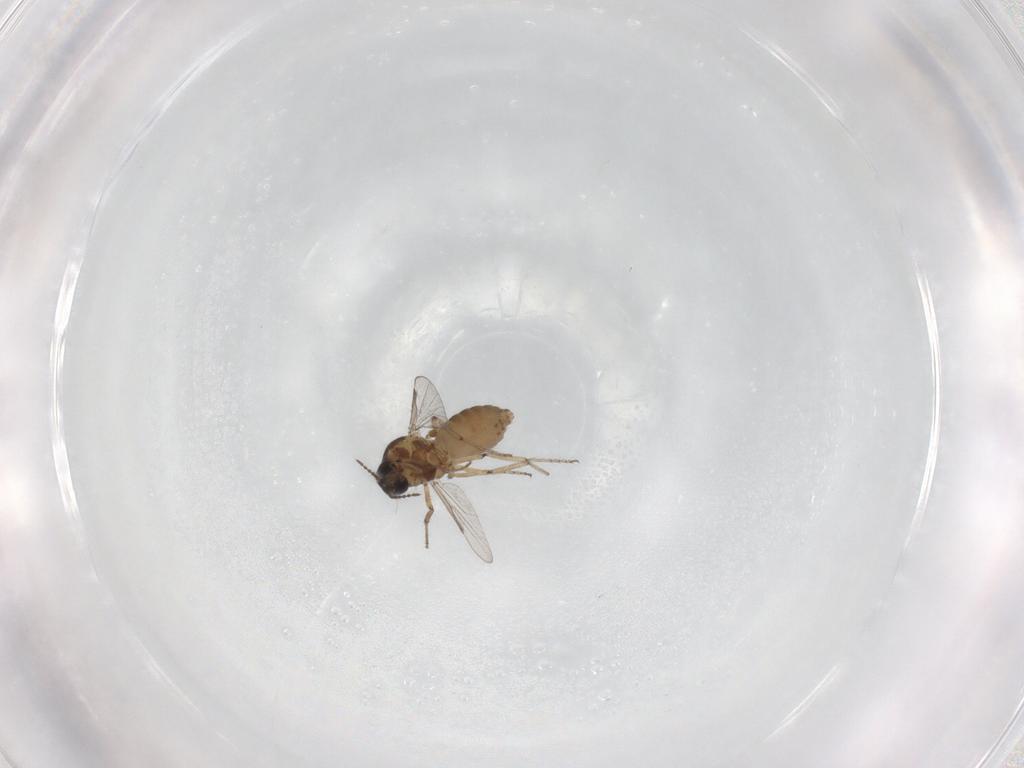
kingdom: Animalia
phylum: Arthropoda
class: Insecta
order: Diptera
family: Ceratopogonidae
